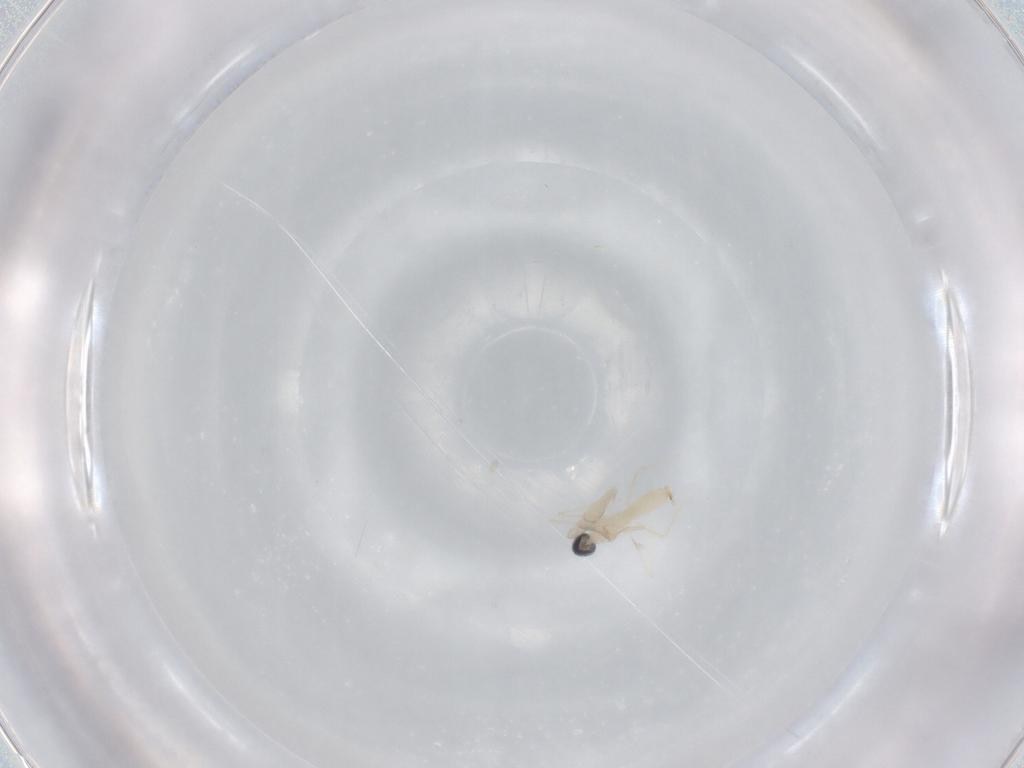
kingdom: Animalia
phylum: Arthropoda
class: Insecta
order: Diptera
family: Cecidomyiidae
